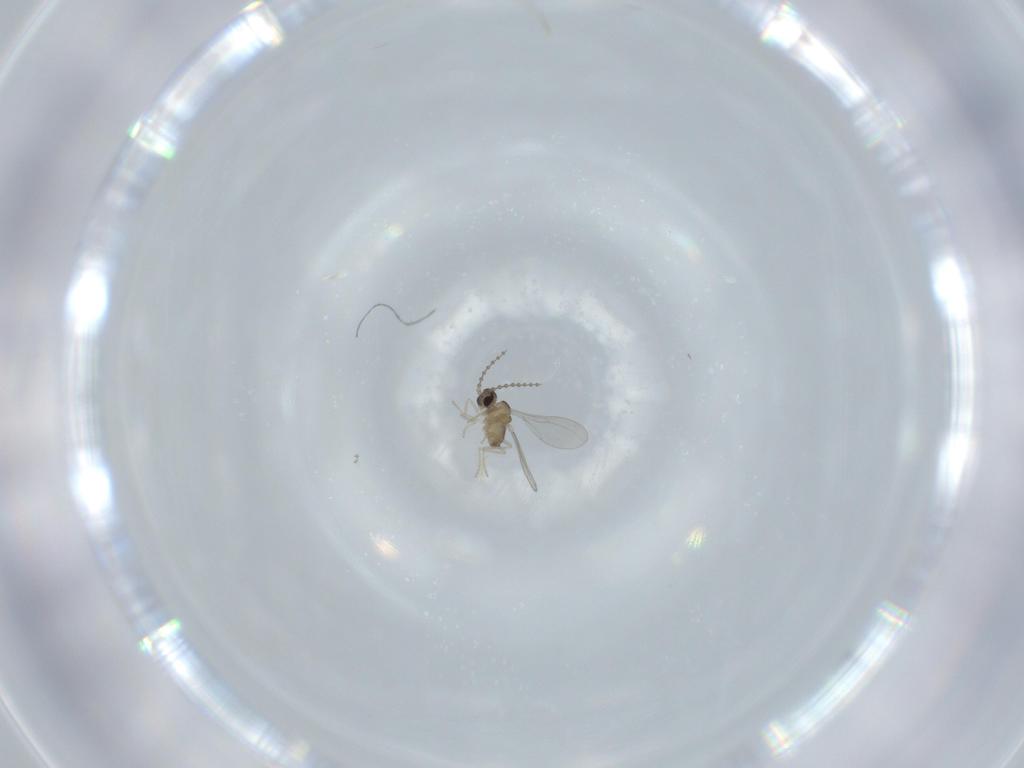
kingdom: Animalia
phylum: Arthropoda
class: Insecta
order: Diptera
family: Cecidomyiidae
